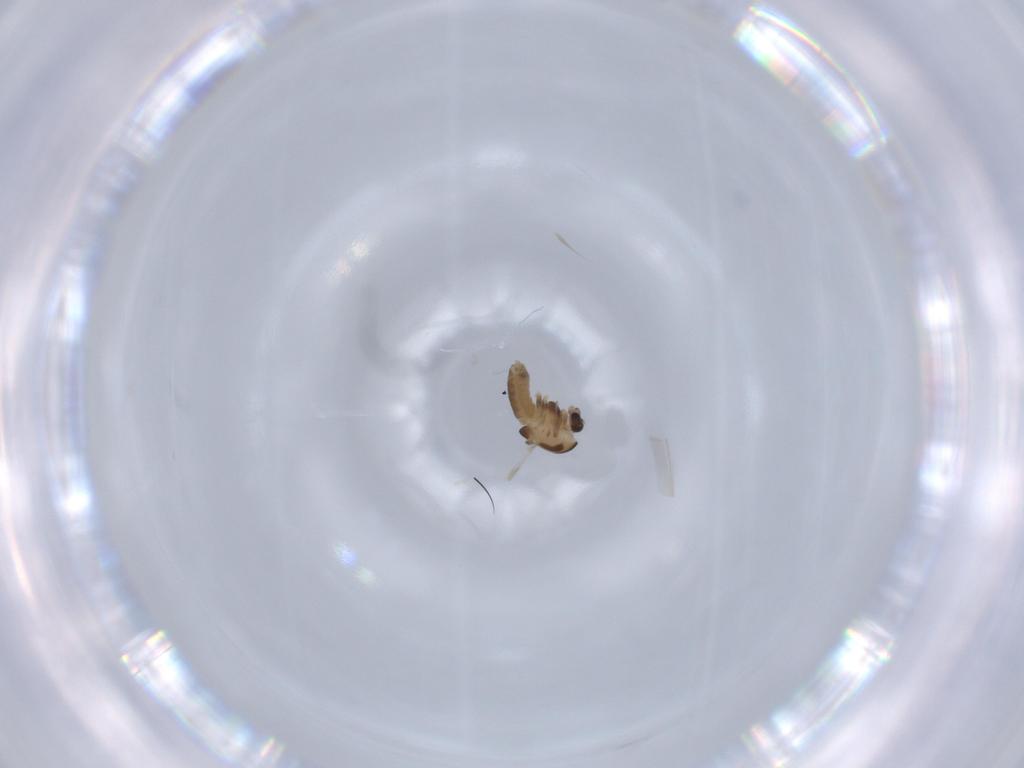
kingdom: Animalia
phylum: Arthropoda
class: Insecta
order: Diptera
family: Chironomidae
